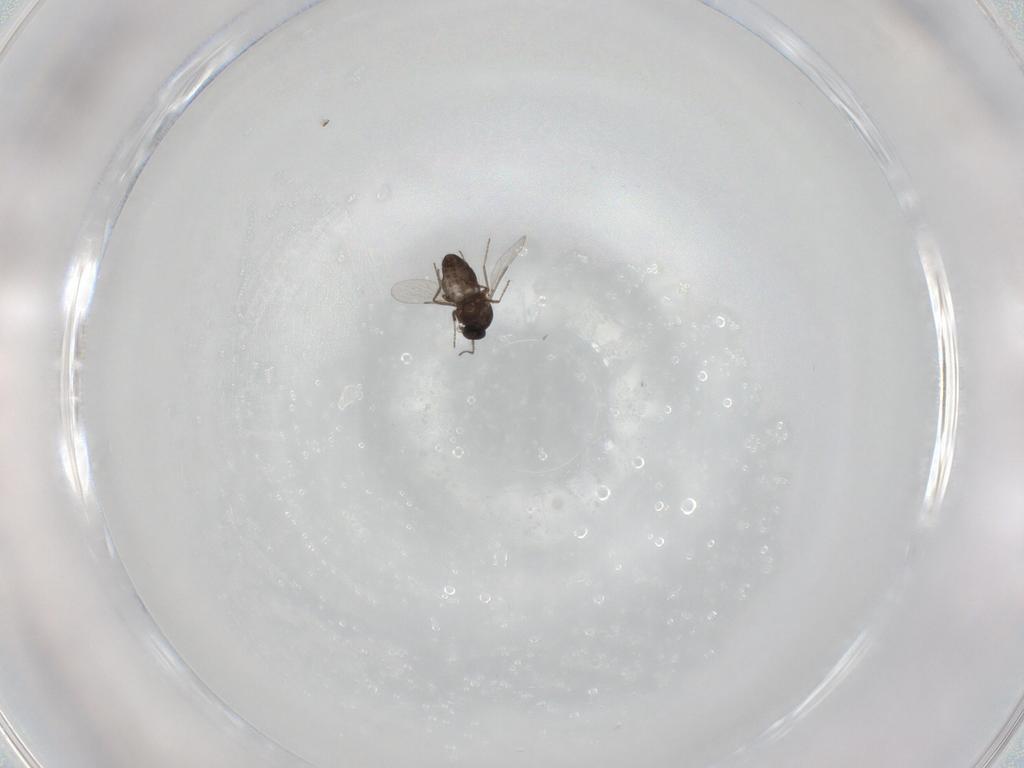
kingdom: Animalia
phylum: Arthropoda
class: Insecta
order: Diptera
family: Ceratopogonidae
